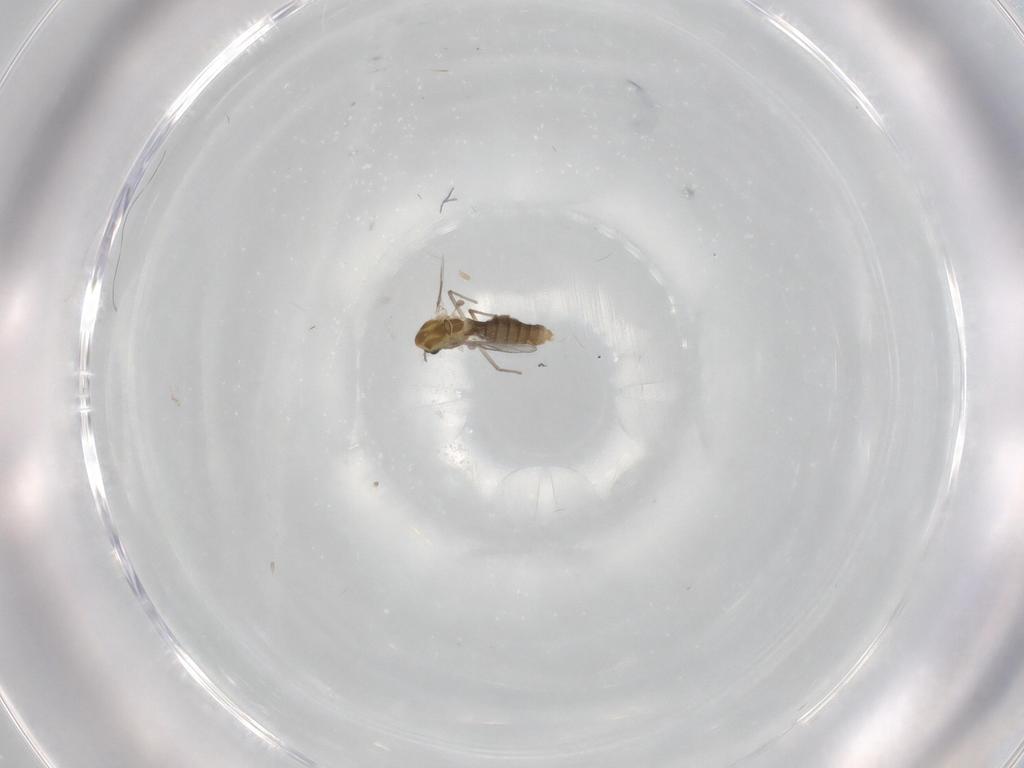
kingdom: Animalia
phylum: Arthropoda
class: Insecta
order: Diptera
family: Chironomidae
